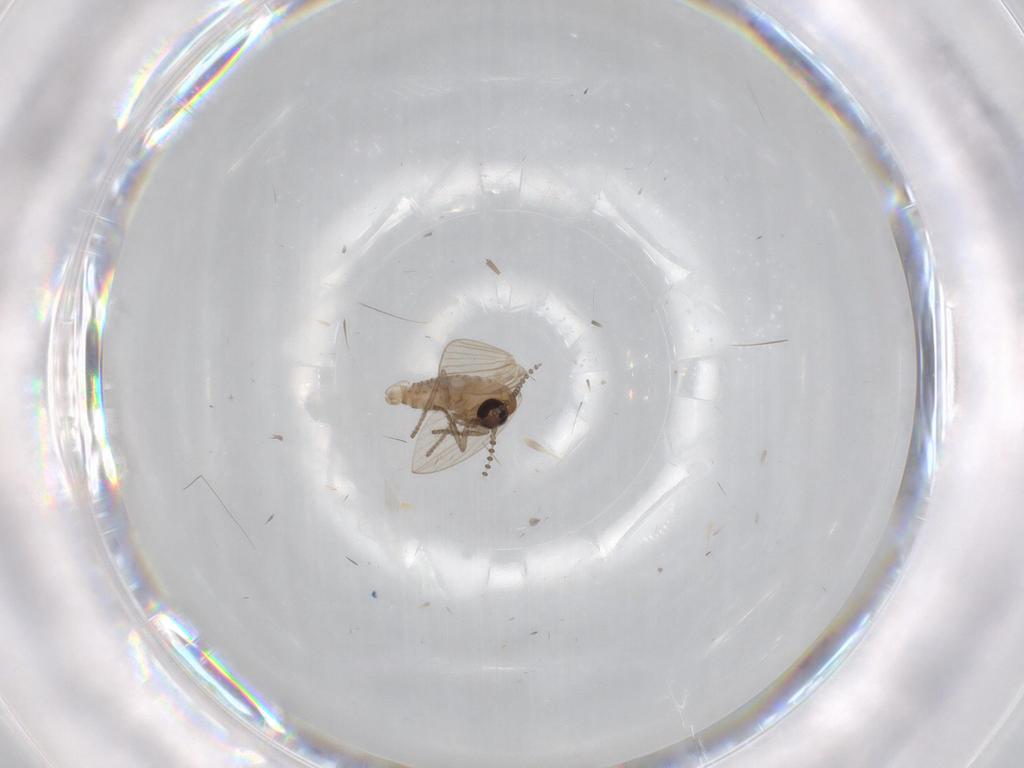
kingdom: Animalia
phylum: Arthropoda
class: Insecta
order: Diptera
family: Psychodidae
